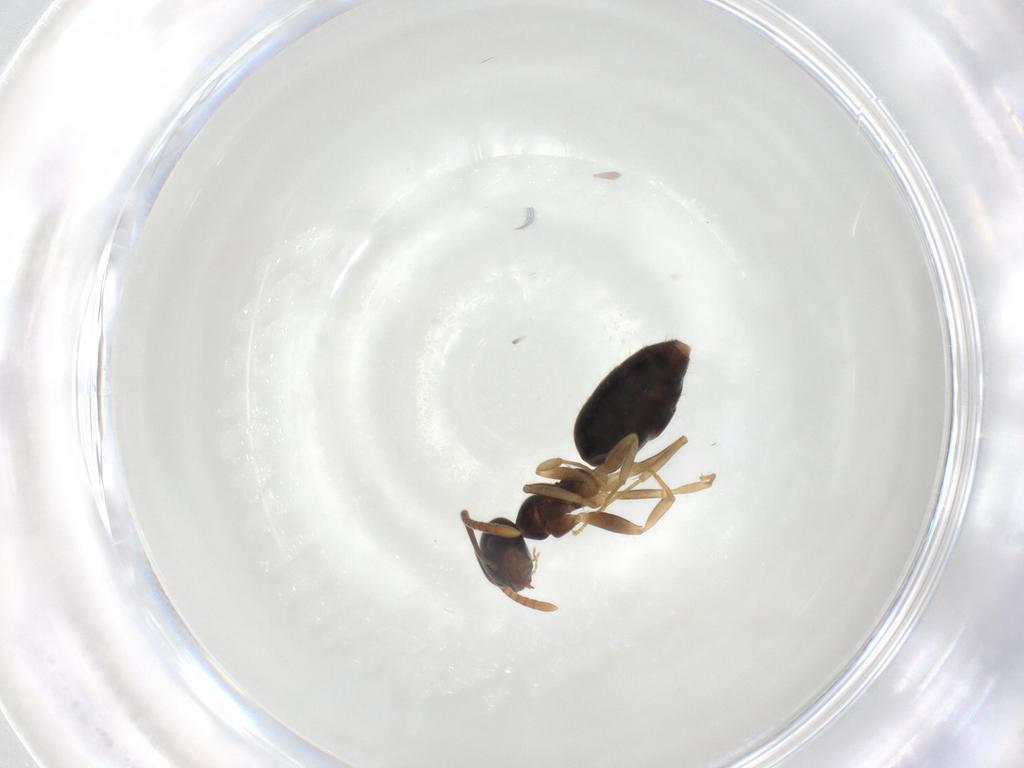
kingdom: Animalia
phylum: Arthropoda
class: Insecta
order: Hymenoptera
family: Formicidae
